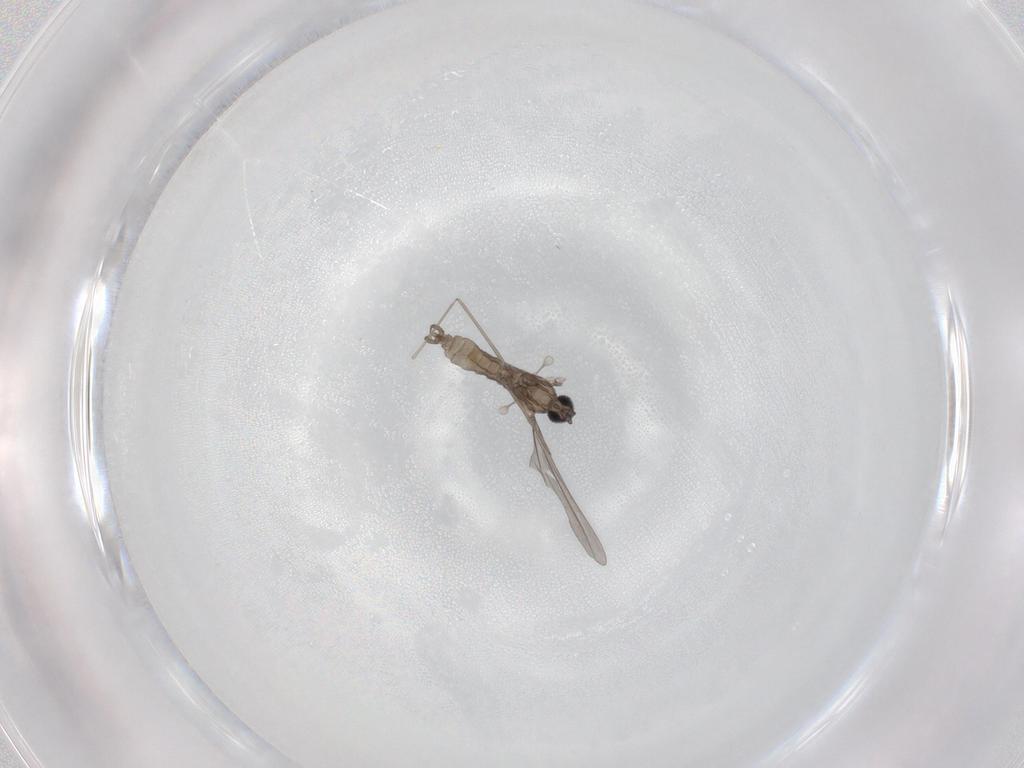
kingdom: Animalia
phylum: Arthropoda
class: Insecta
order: Diptera
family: Cecidomyiidae
